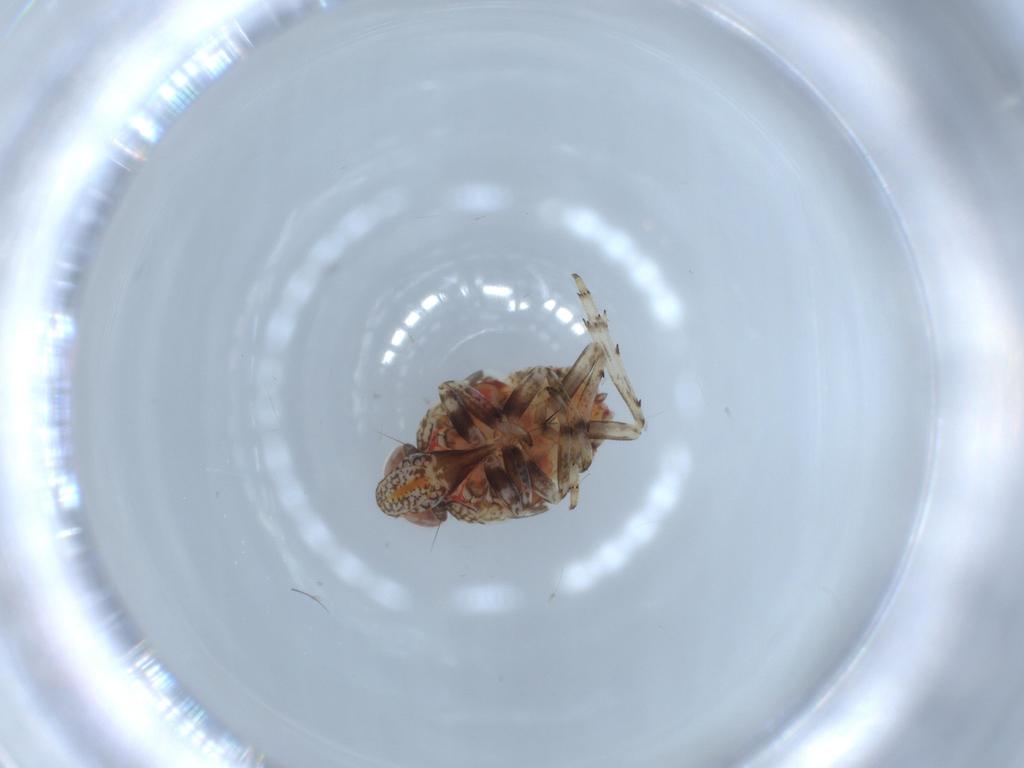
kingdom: Animalia
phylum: Arthropoda
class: Insecta
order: Hemiptera
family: Issidae
